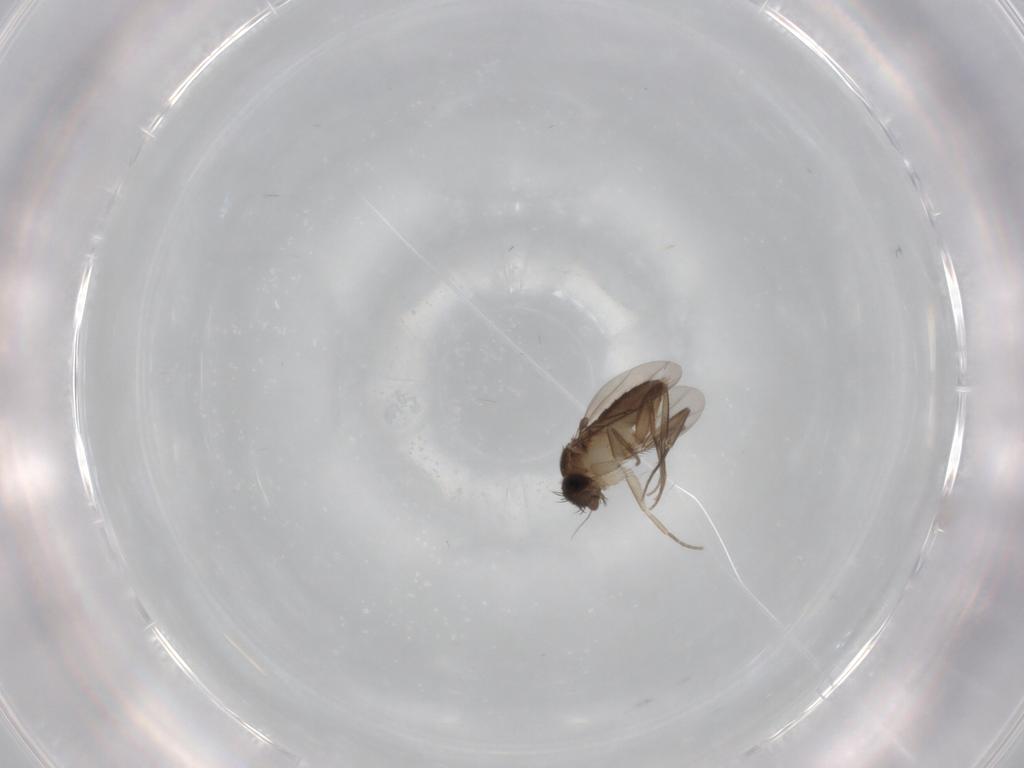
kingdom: Animalia
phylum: Arthropoda
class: Insecta
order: Diptera
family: Phoridae
